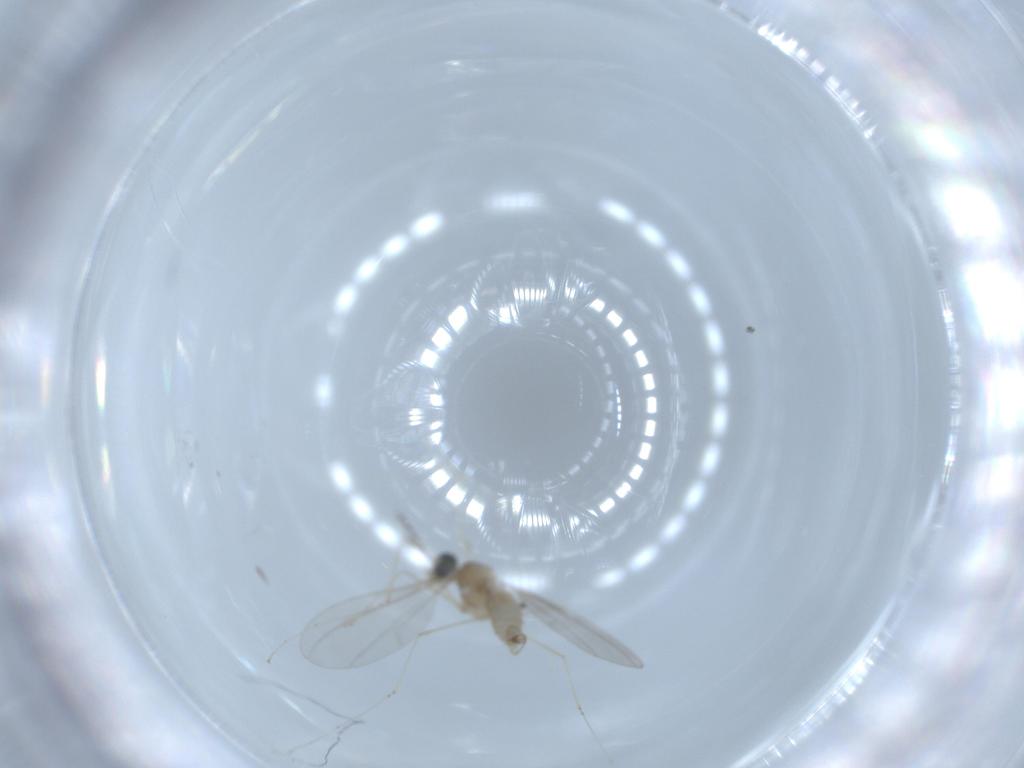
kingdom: Animalia
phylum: Arthropoda
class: Insecta
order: Diptera
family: Cecidomyiidae
